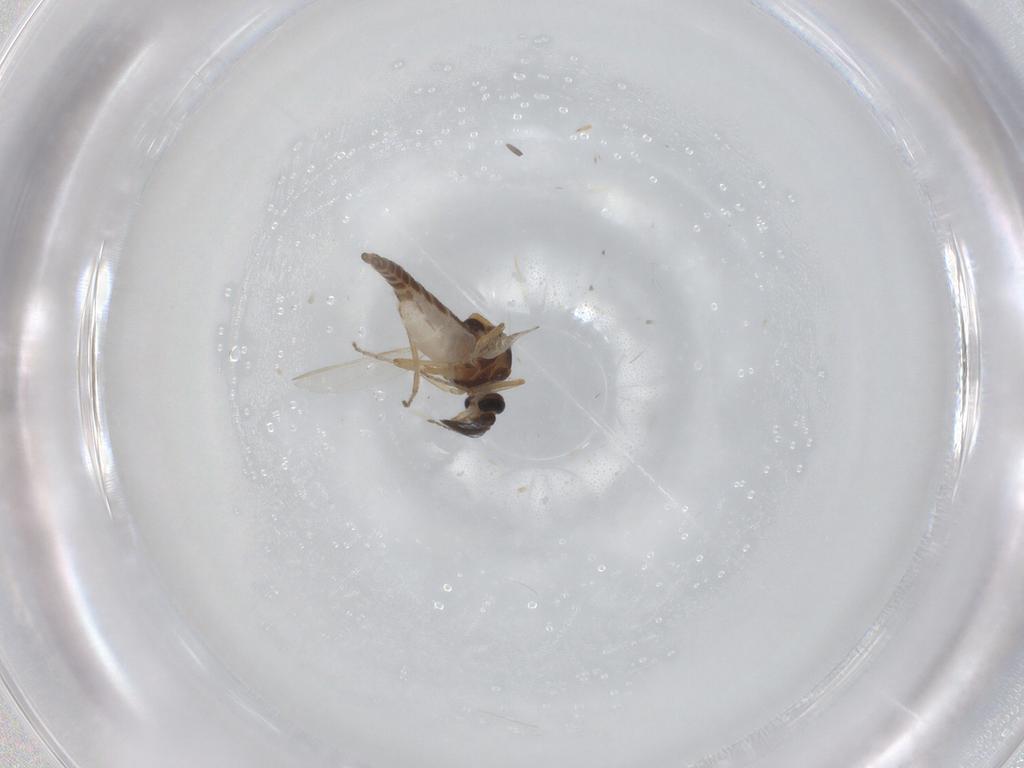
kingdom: Animalia
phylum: Arthropoda
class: Insecta
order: Diptera
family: Ceratopogonidae
